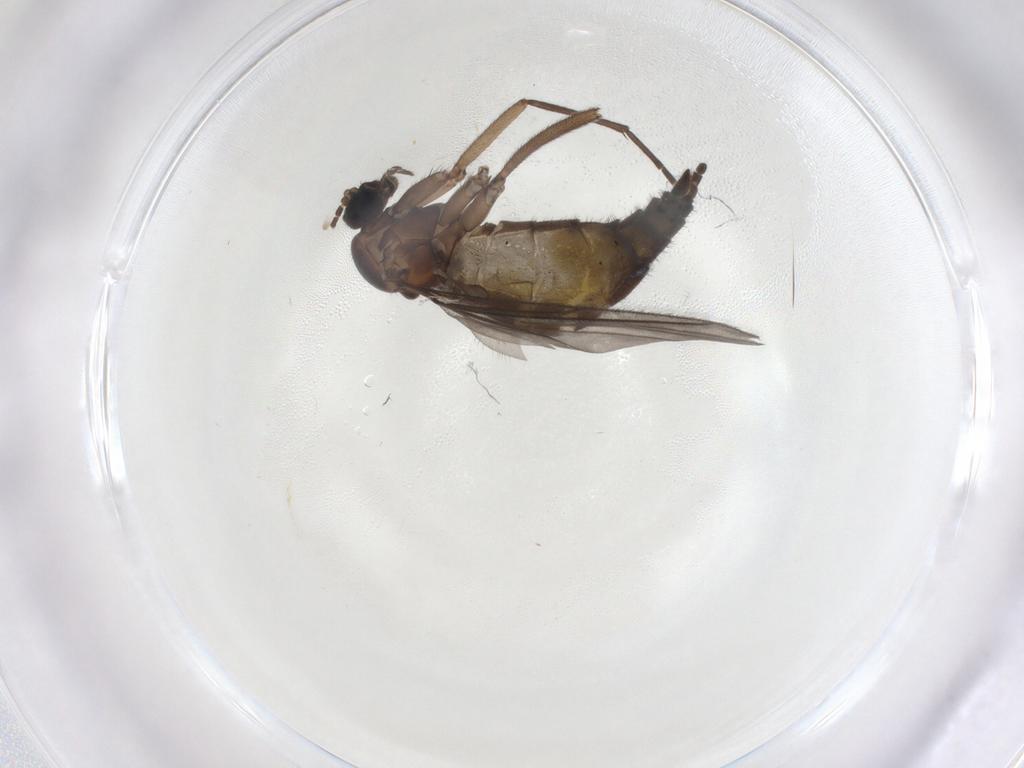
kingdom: Animalia
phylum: Arthropoda
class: Insecta
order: Diptera
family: Sciaridae
